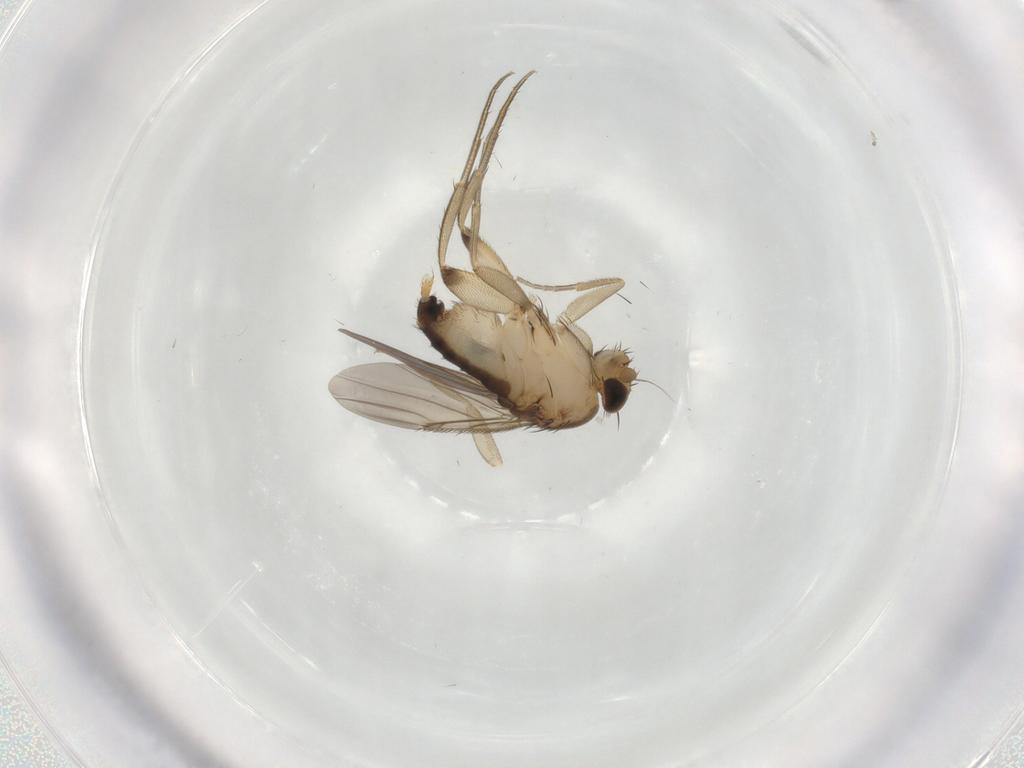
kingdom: Animalia
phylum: Arthropoda
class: Insecta
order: Diptera
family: Phoridae
